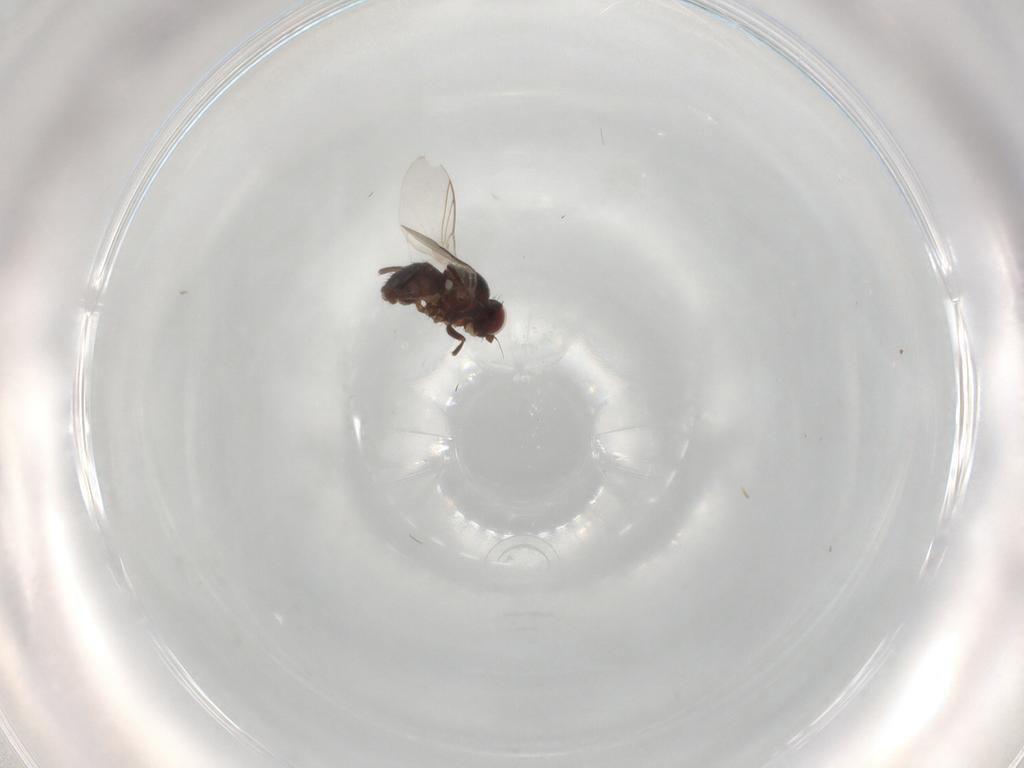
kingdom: Animalia
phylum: Arthropoda
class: Insecta
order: Diptera
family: Agromyzidae
